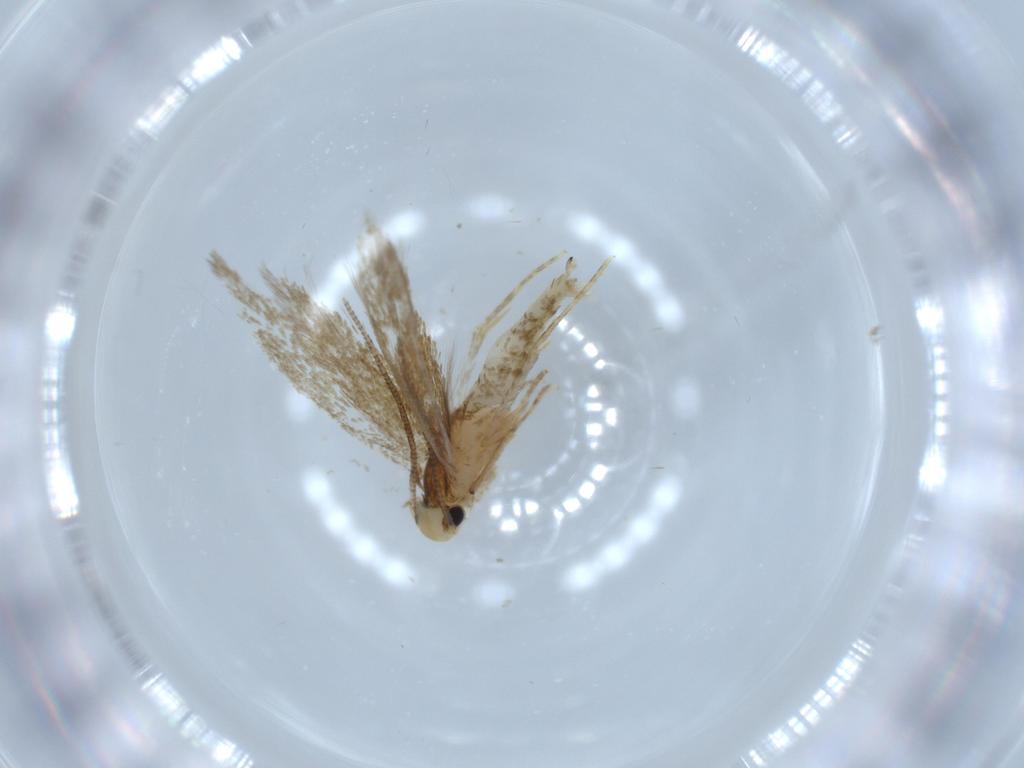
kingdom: Animalia
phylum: Arthropoda
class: Insecta
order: Lepidoptera
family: Tineidae
